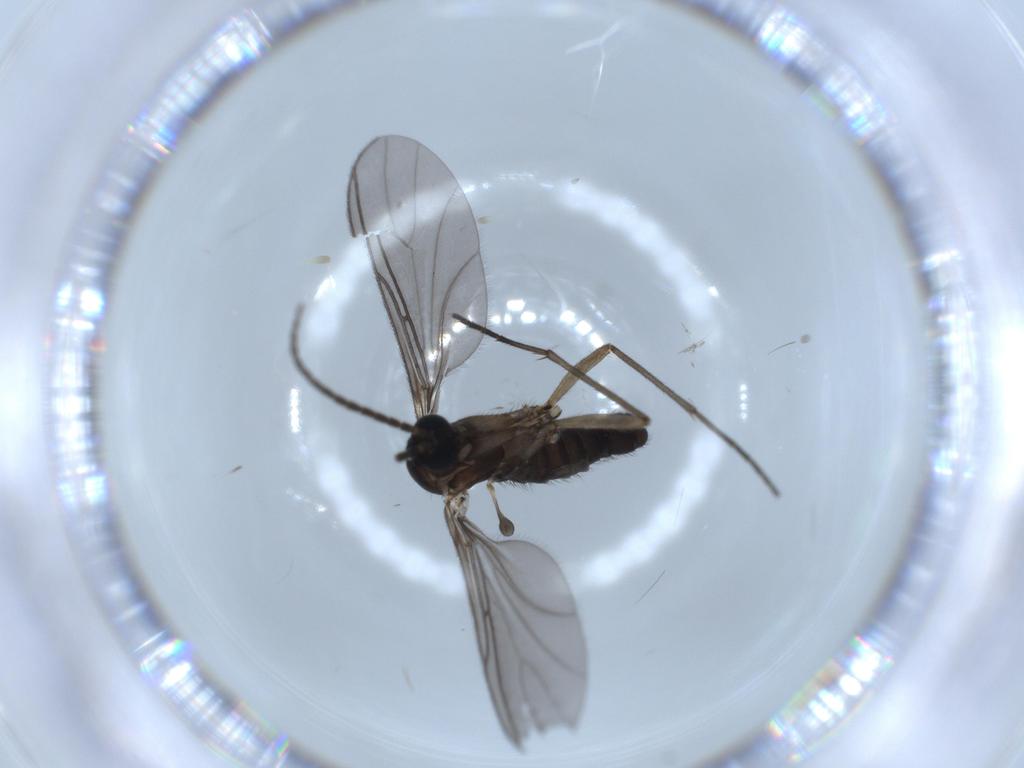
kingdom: Animalia
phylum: Arthropoda
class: Insecta
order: Diptera
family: Sciaridae
